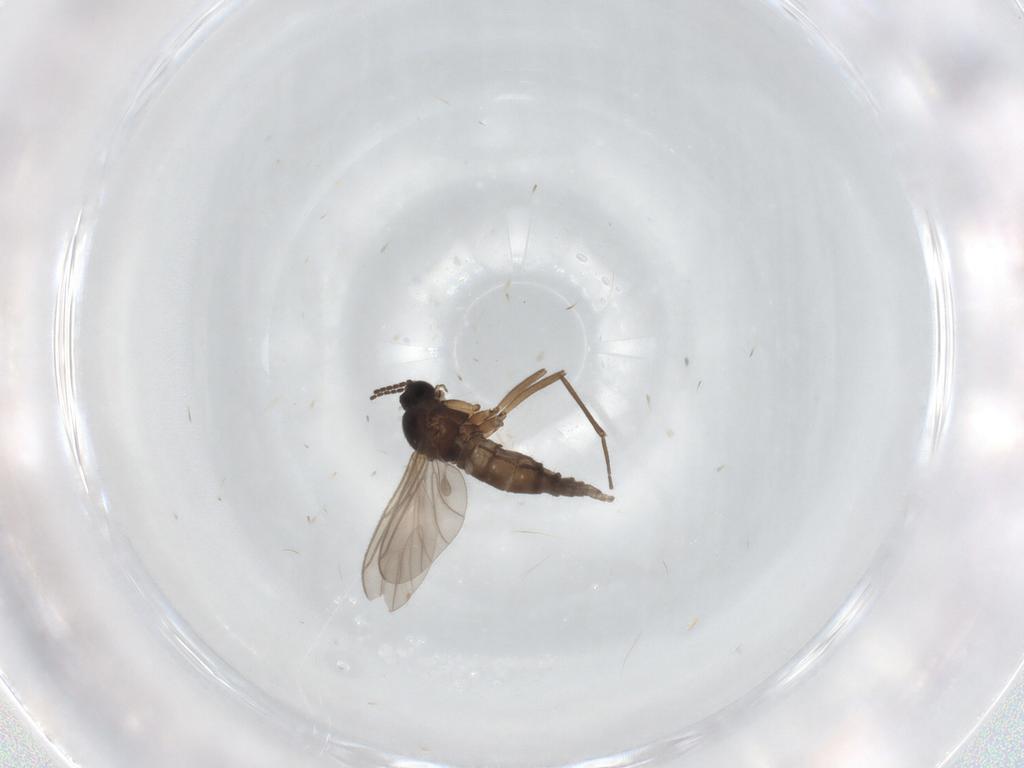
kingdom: Animalia
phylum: Arthropoda
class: Insecta
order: Diptera
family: Sciaridae
